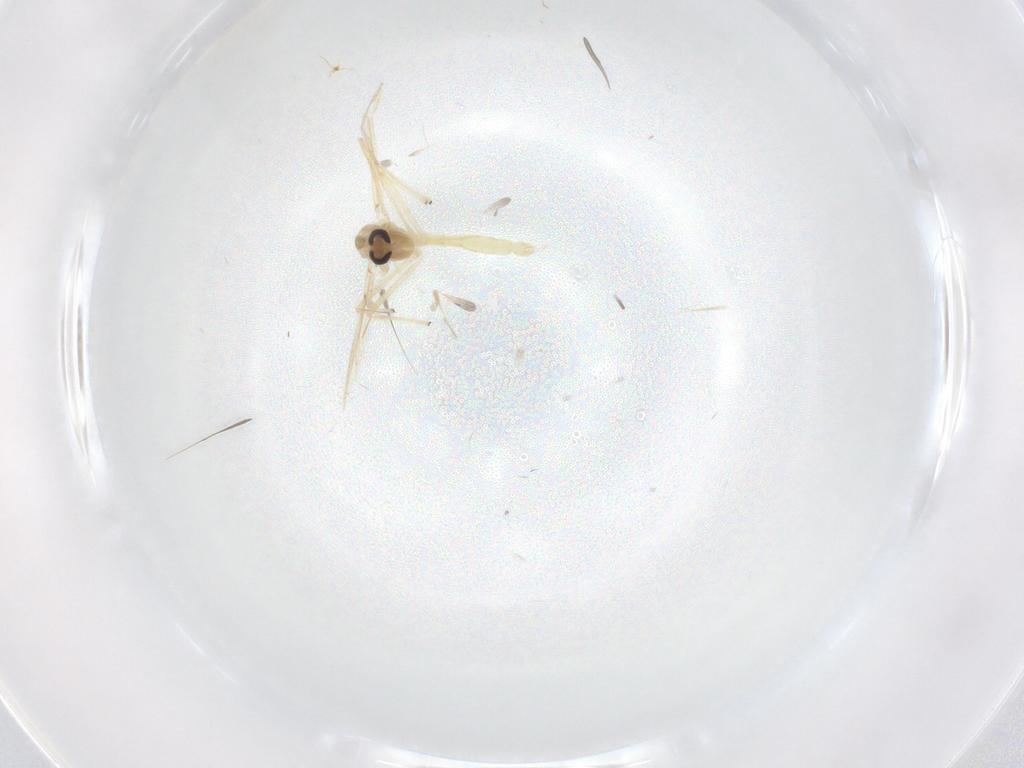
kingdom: Animalia
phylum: Arthropoda
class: Insecta
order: Diptera
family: Chironomidae
